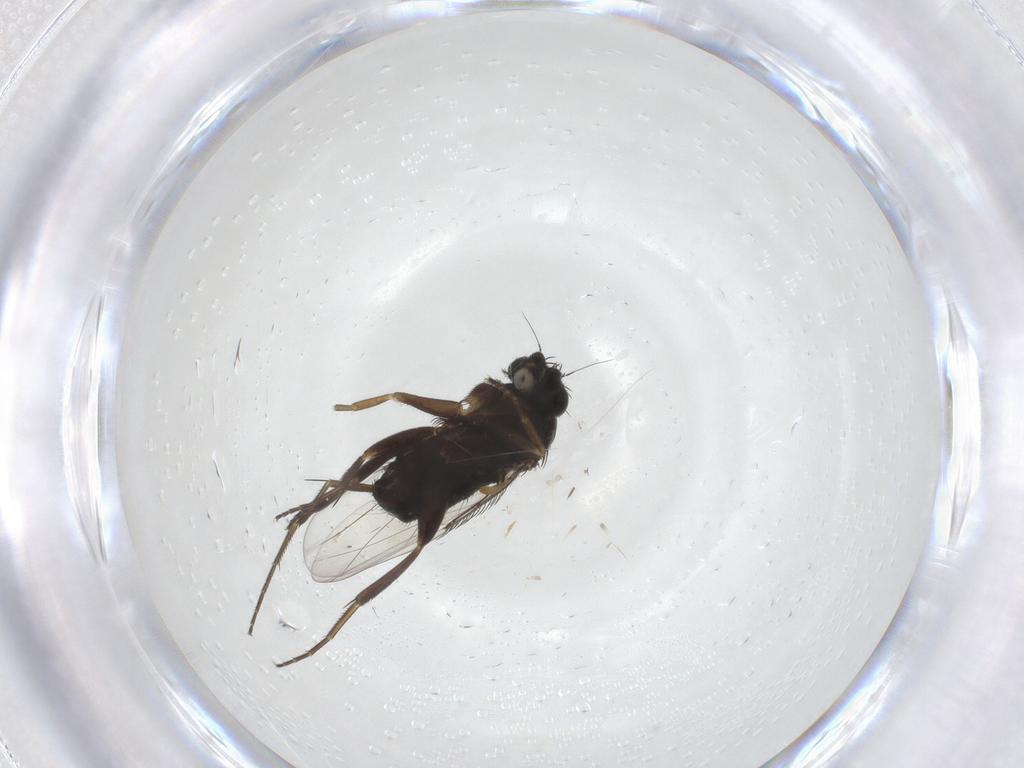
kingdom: Animalia
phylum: Arthropoda
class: Insecta
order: Diptera
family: Phoridae
